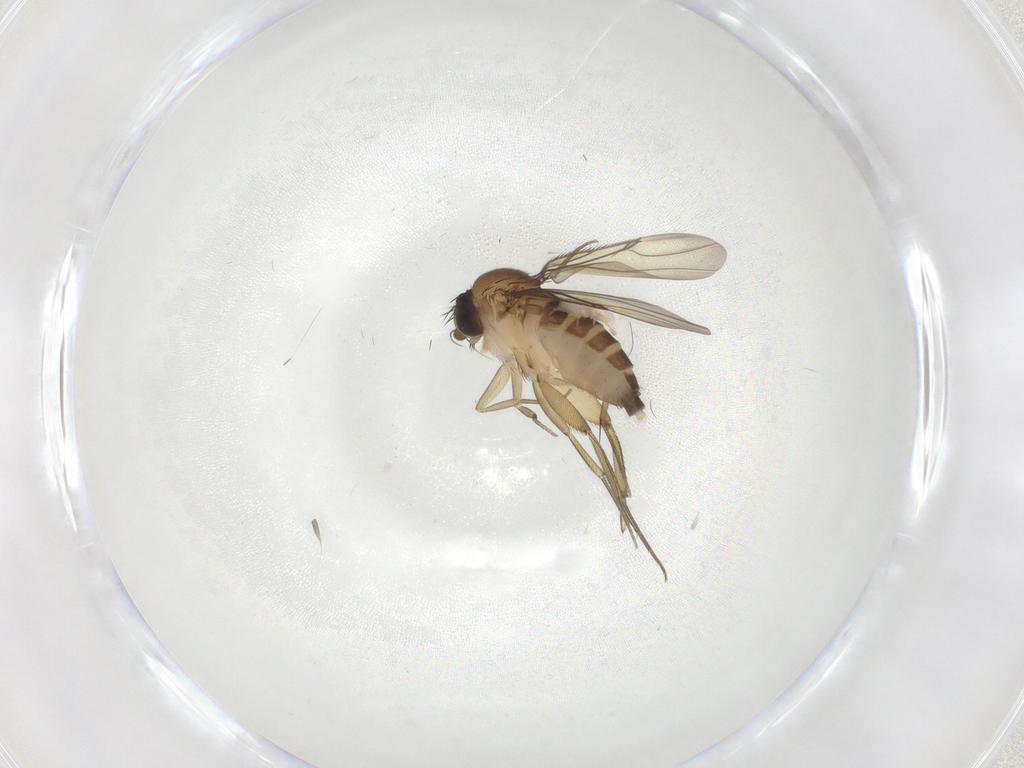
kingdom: Animalia
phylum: Arthropoda
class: Insecta
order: Diptera
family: Phoridae
